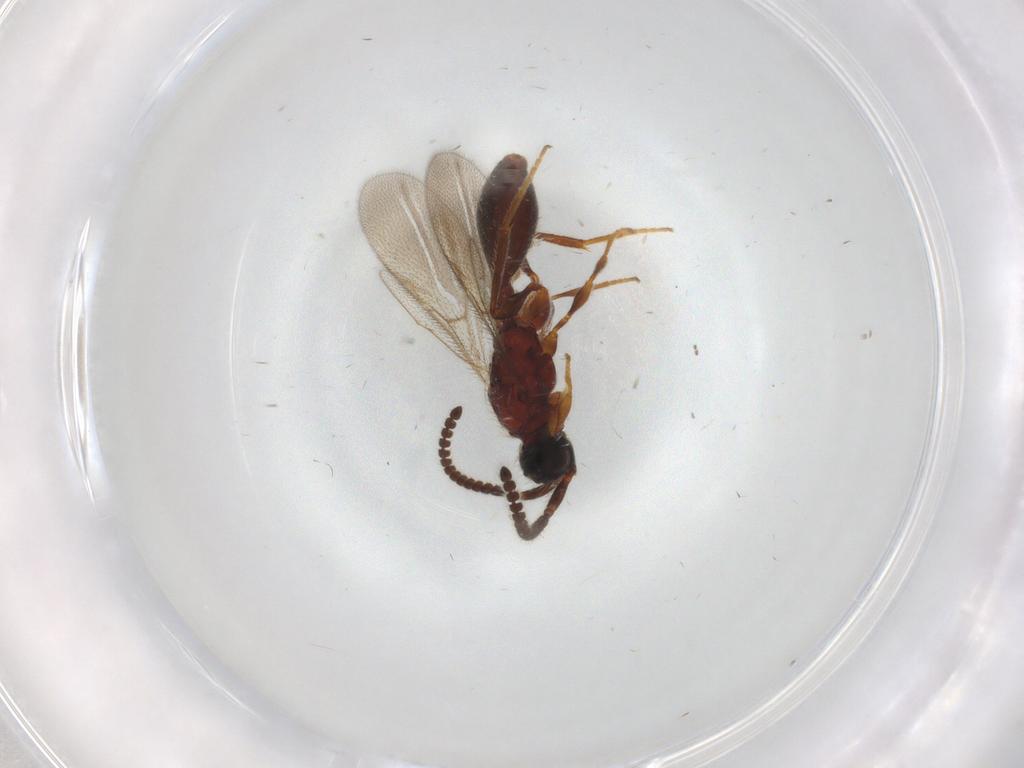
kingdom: Animalia
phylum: Arthropoda
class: Insecta
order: Hymenoptera
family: Diapriidae
